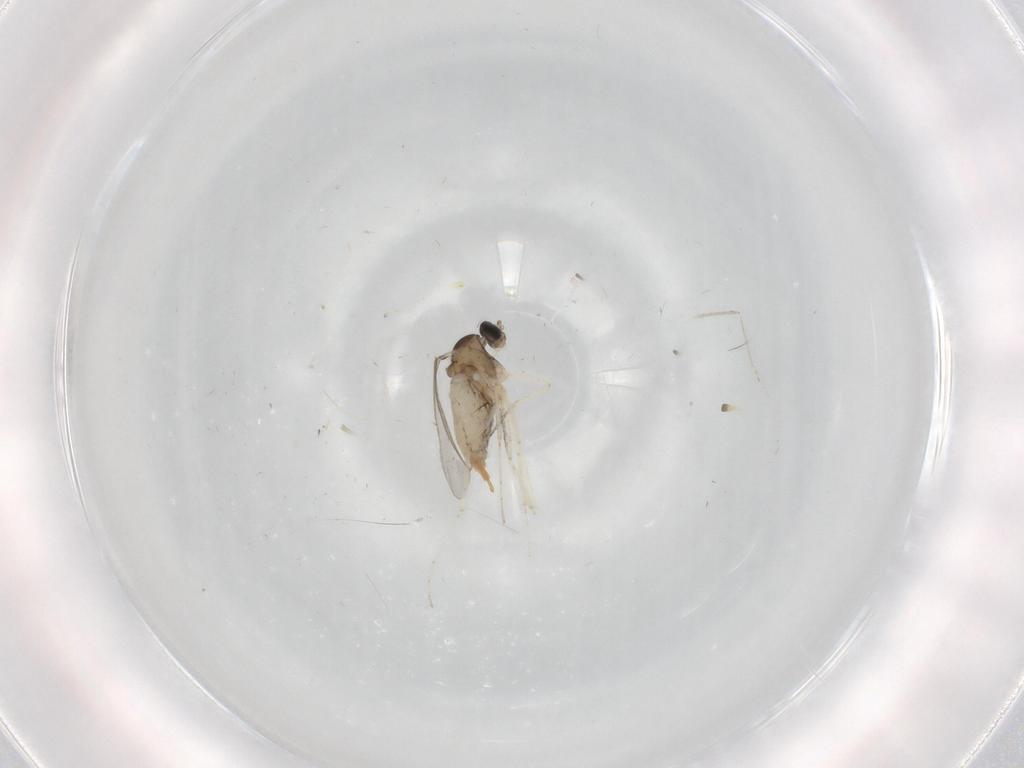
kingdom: Animalia
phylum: Arthropoda
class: Insecta
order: Diptera
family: Cecidomyiidae
